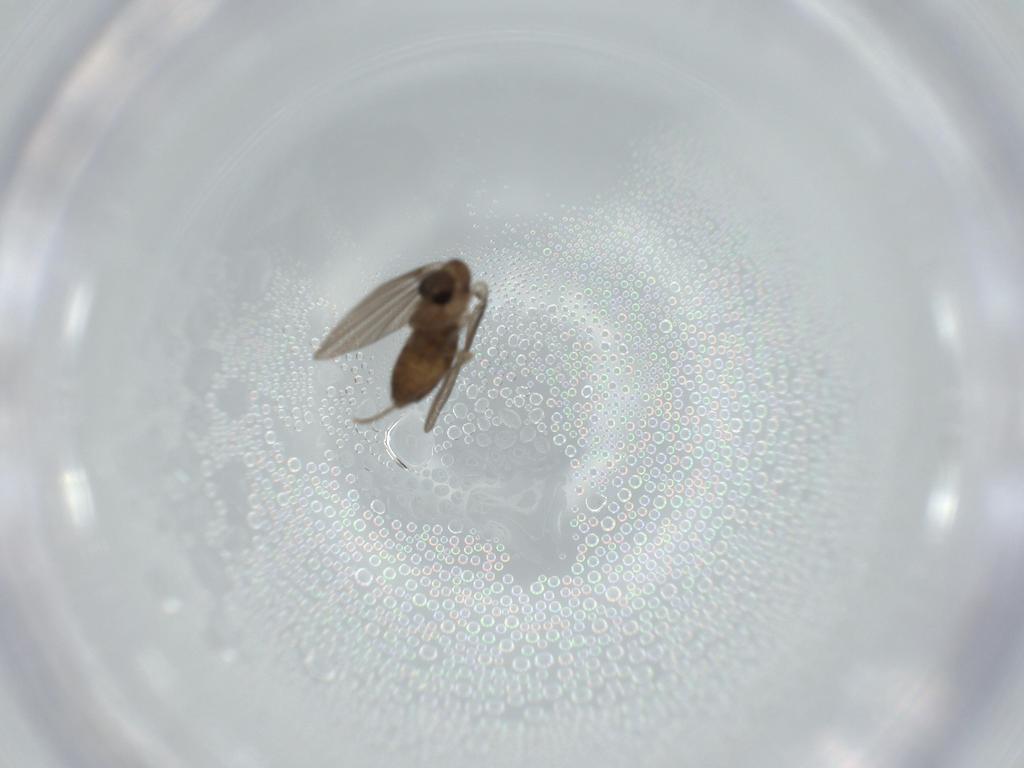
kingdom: Animalia
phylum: Arthropoda
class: Insecta
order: Diptera
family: Psychodidae
